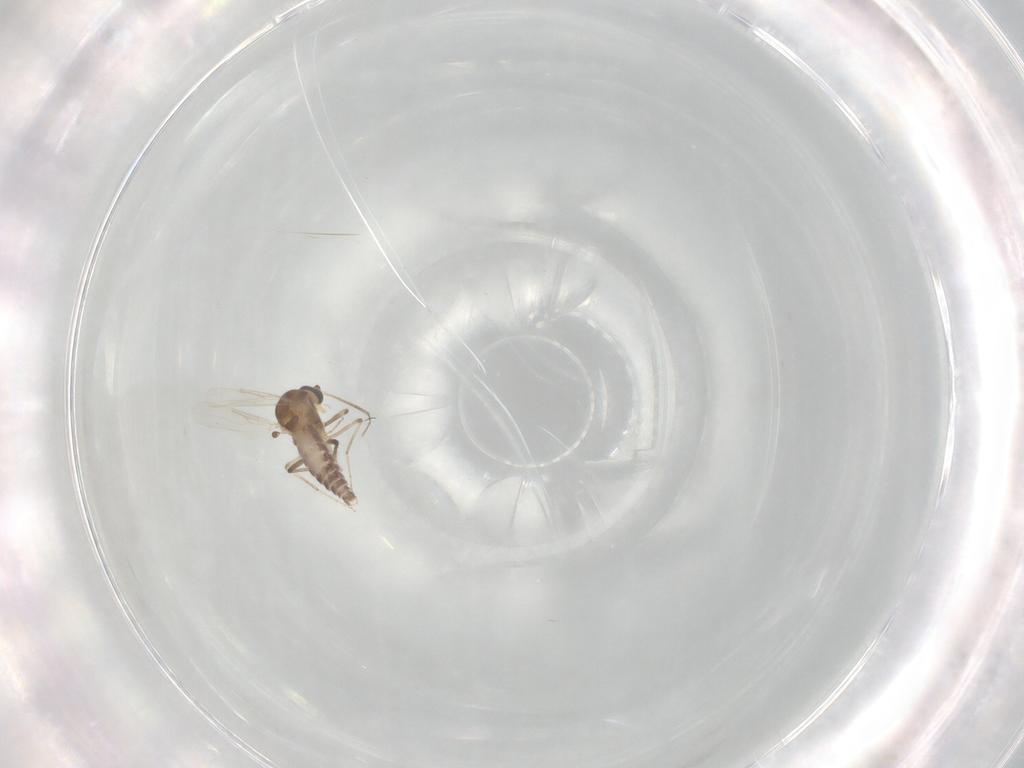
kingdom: Animalia
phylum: Arthropoda
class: Insecta
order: Diptera
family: Ceratopogonidae
